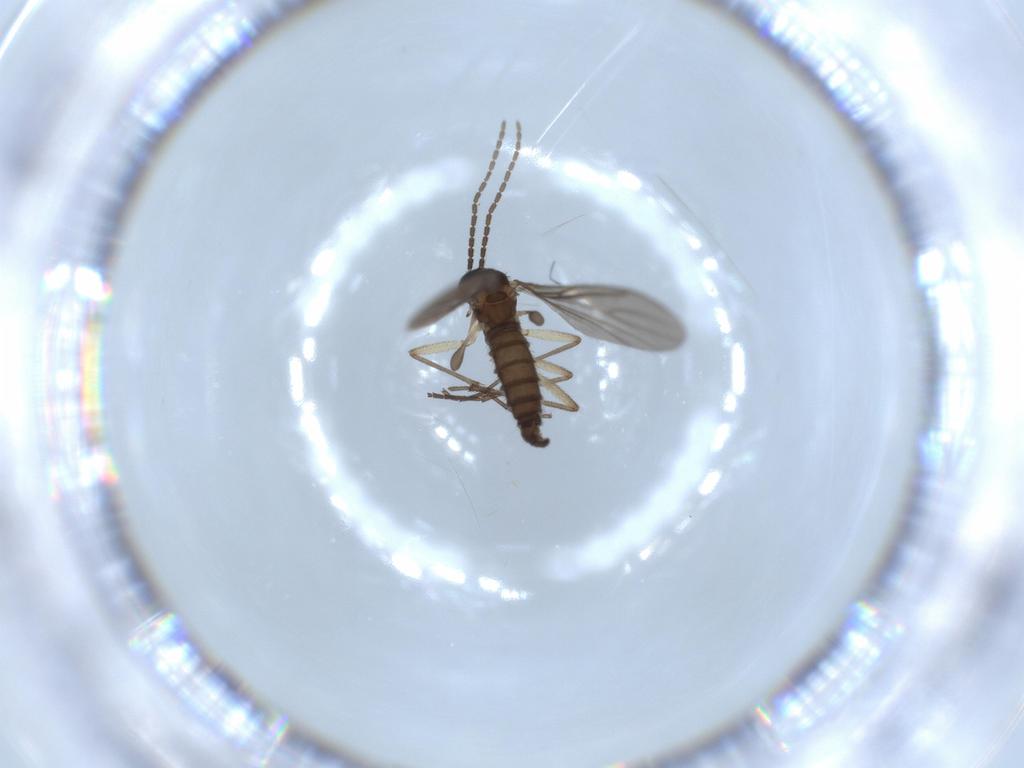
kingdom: Animalia
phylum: Arthropoda
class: Insecta
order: Diptera
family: Sciaridae
